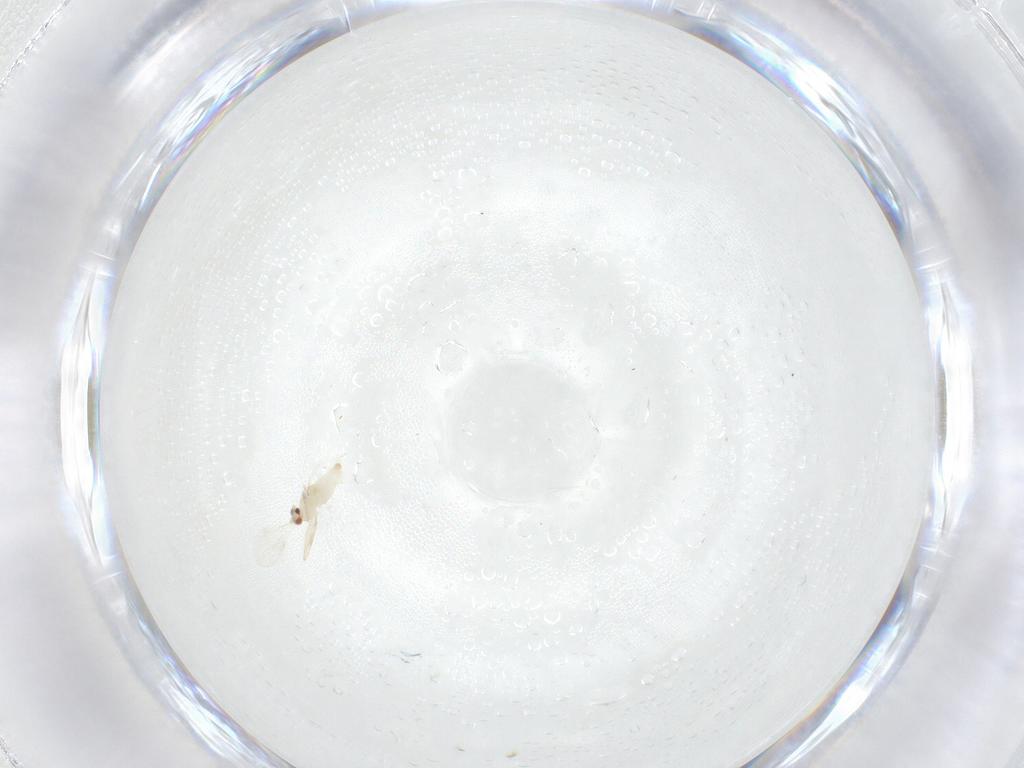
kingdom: Animalia
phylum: Arthropoda
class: Insecta
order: Diptera
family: Cecidomyiidae
